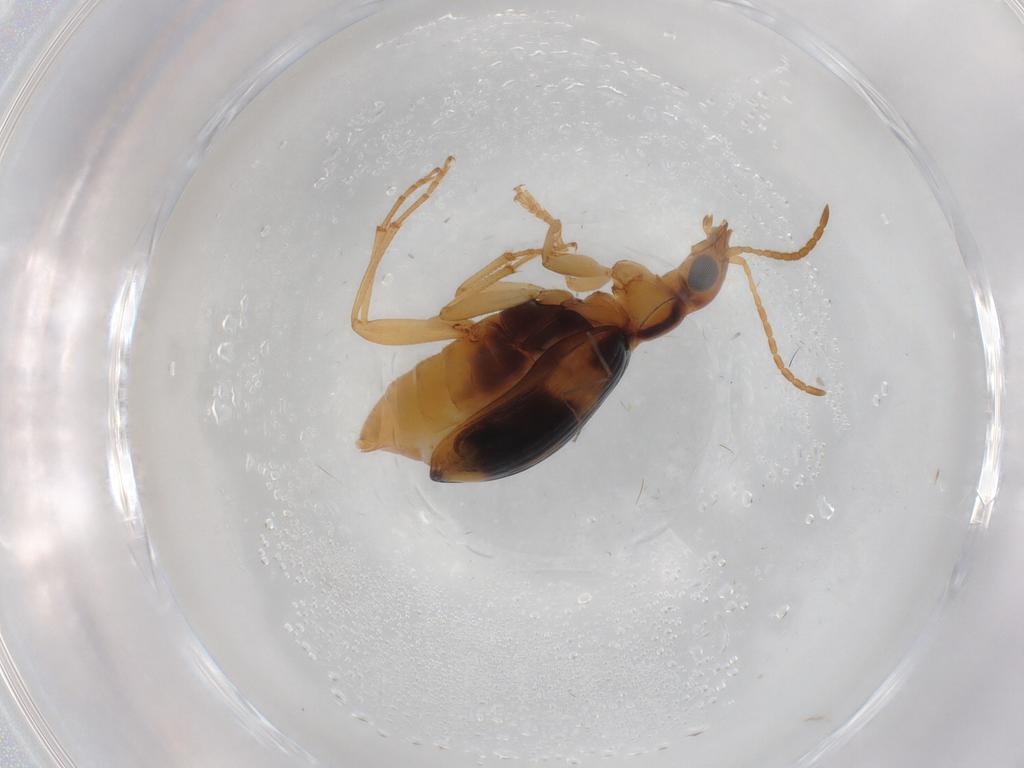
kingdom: Animalia
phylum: Arthropoda
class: Insecta
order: Coleoptera
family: Carabidae
